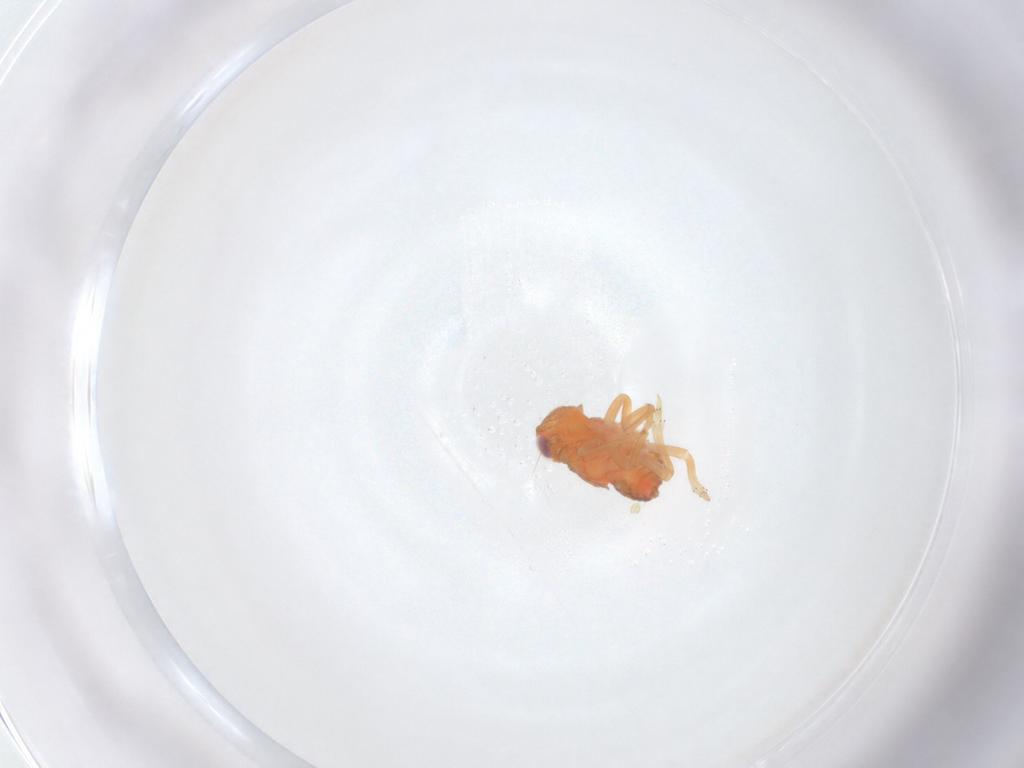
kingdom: Animalia
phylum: Arthropoda
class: Insecta
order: Hemiptera
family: Issidae
